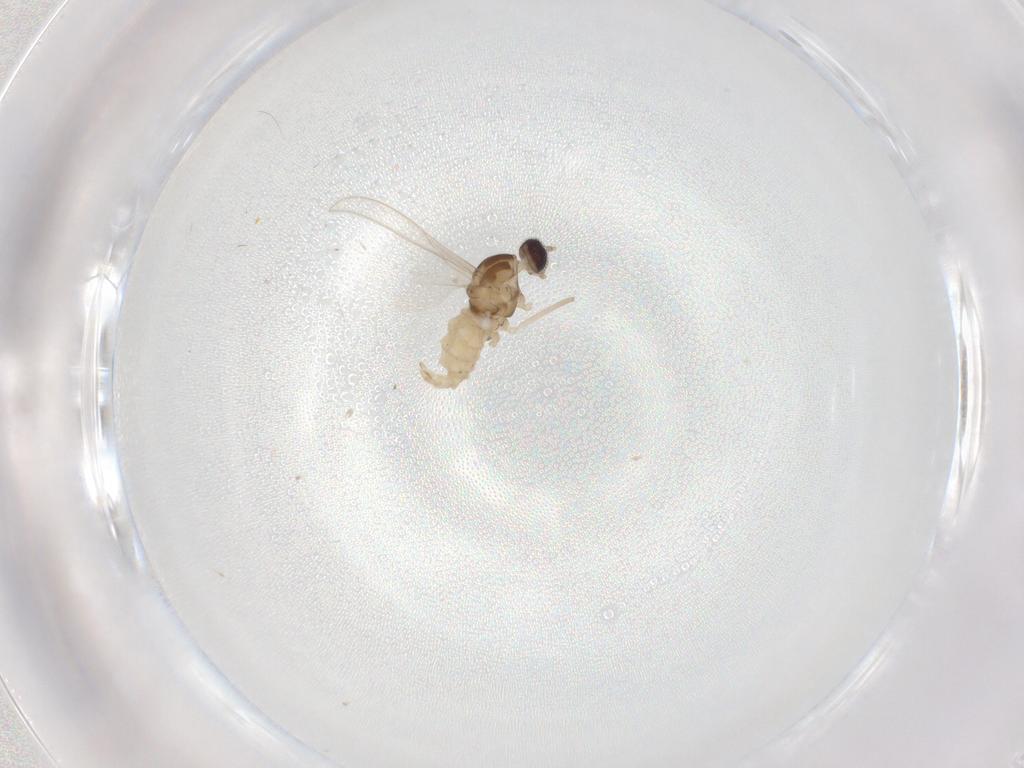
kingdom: Animalia
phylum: Arthropoda
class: Insecta
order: Diptera
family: Cecidomyiidae
